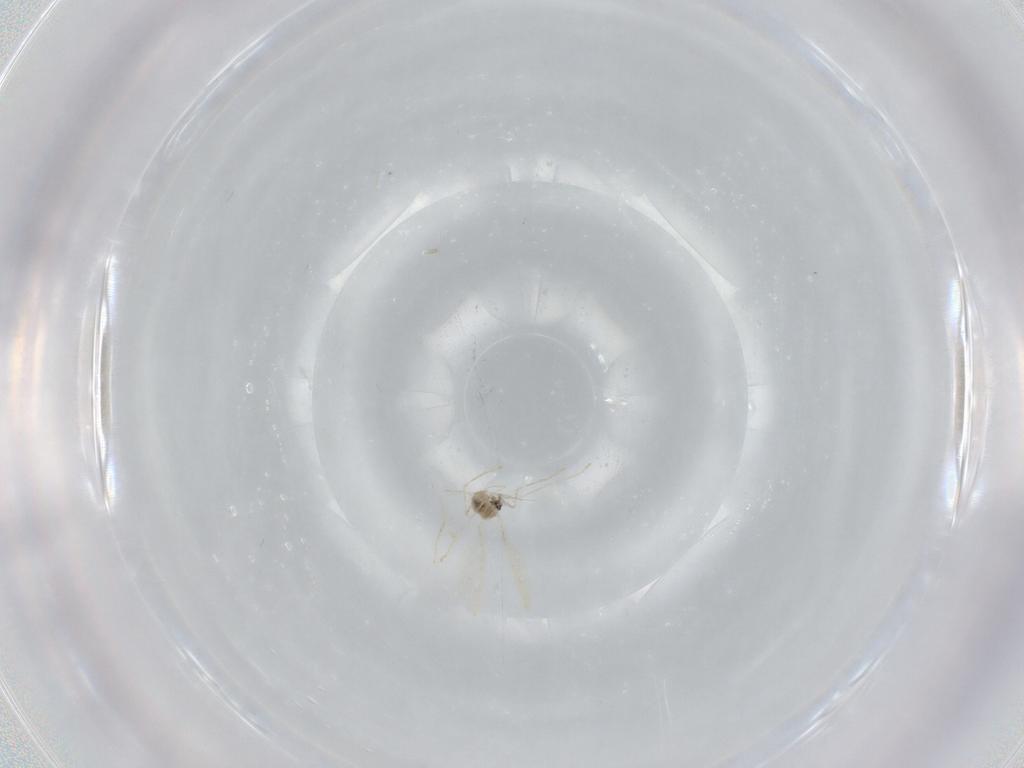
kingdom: Animalia
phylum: Arthropoda
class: Insecta
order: Diptera
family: Cecidomyiidae
